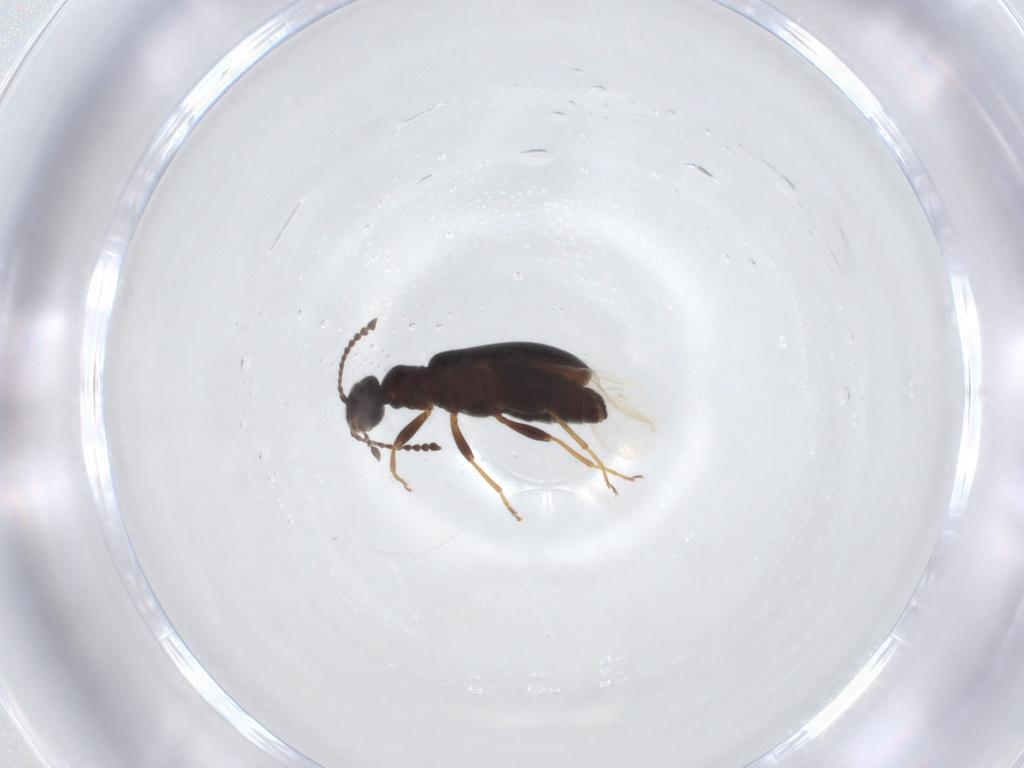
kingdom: Animalia
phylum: Arthropoda
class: Insecta
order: Coleoptera
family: Anthicidae
